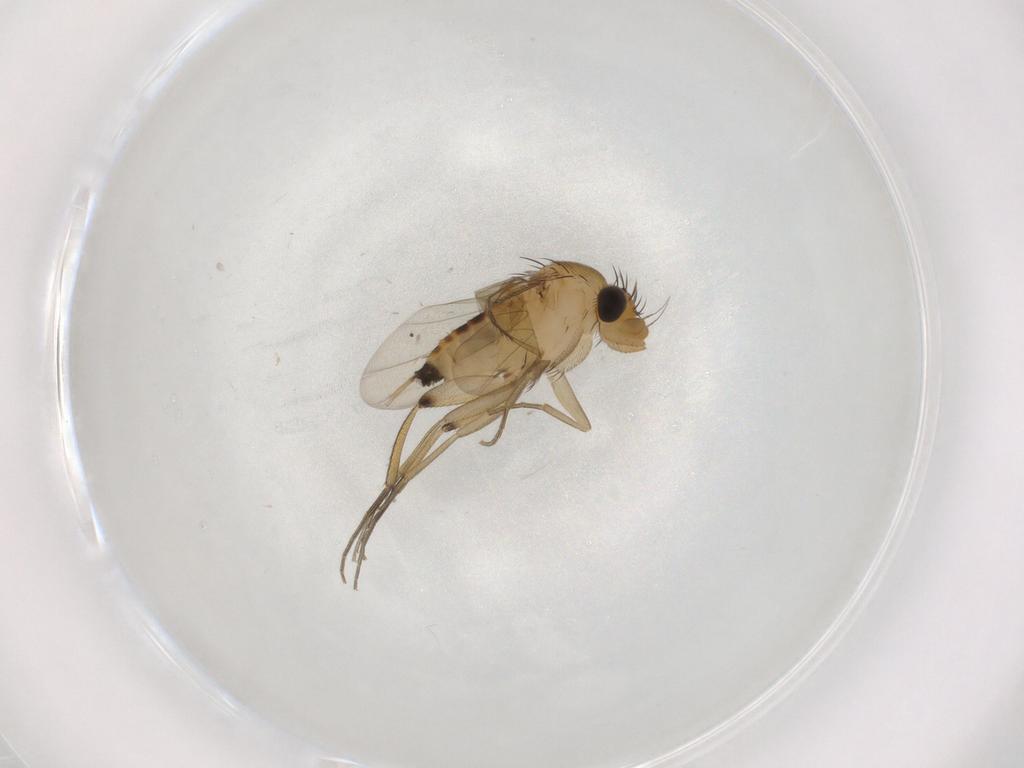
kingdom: Animalia
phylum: Arthropoda
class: Insecta
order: Diptera
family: Phoridae
